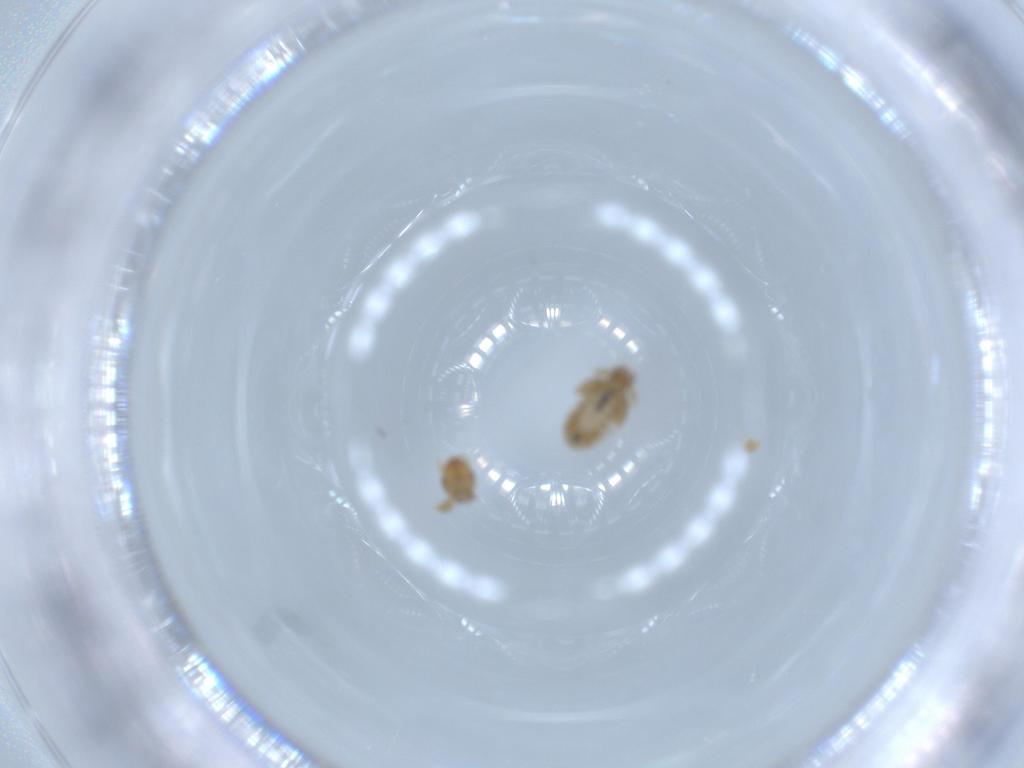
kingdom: Animalia
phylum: Arthropoda
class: Insecta
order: Psocodea
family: Liposcelididae
